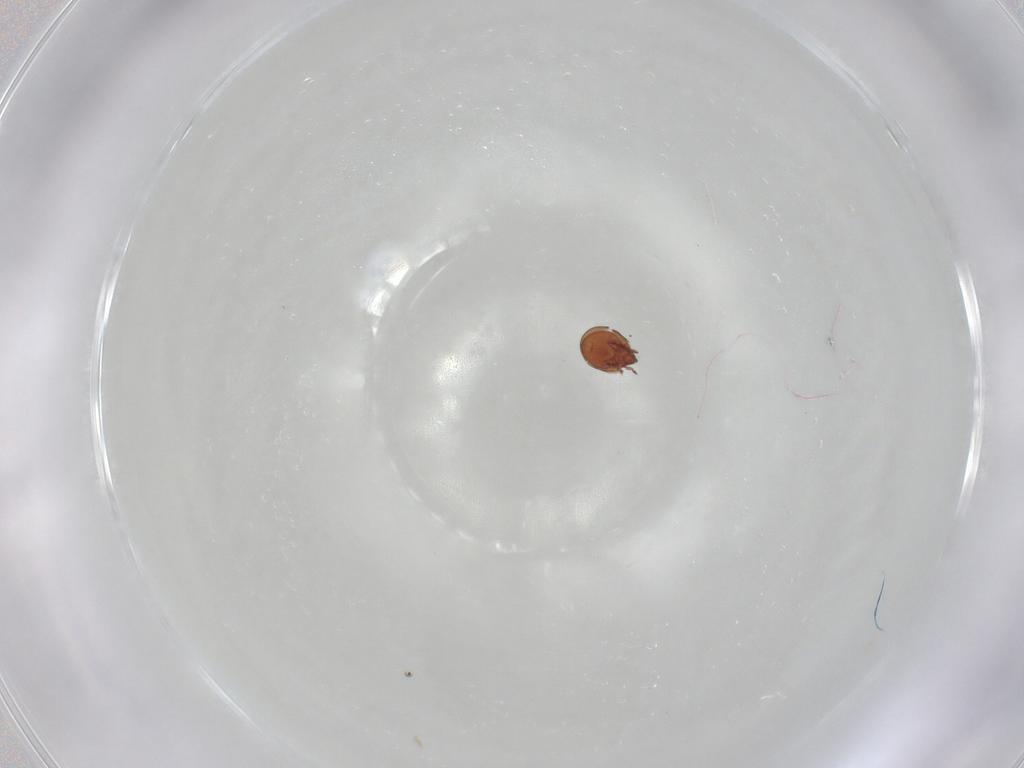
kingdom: Animalia
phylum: Arthropoda
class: Arachnida
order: Sarcoptiformes
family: Scheloribatidae
